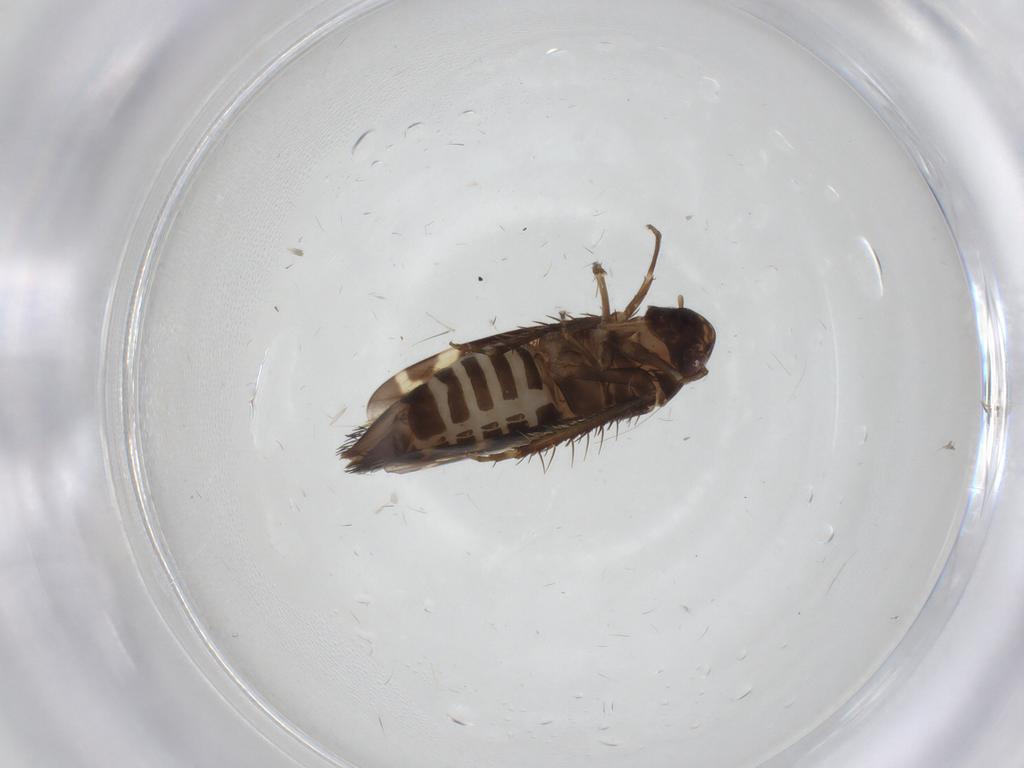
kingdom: Animalia
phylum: Arthropoda
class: Insecta
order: Hemiptera
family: Cicadellidae
